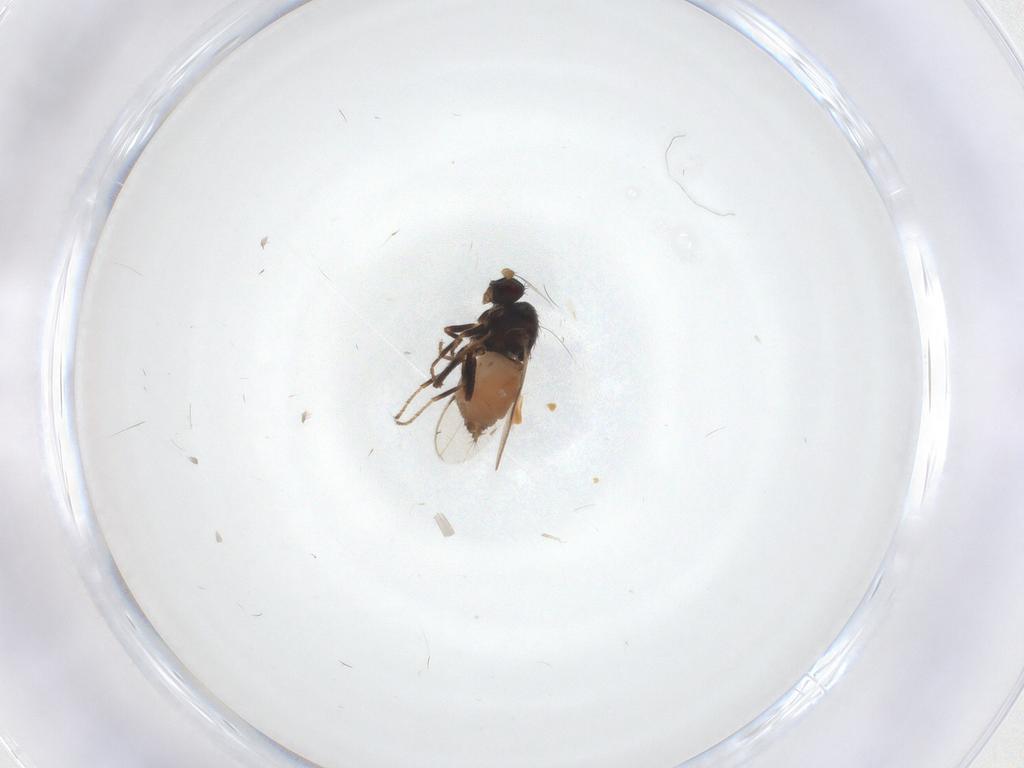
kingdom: Animalia
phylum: Arthropoda
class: Insecta
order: Diptera
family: Sphaeroceridae
